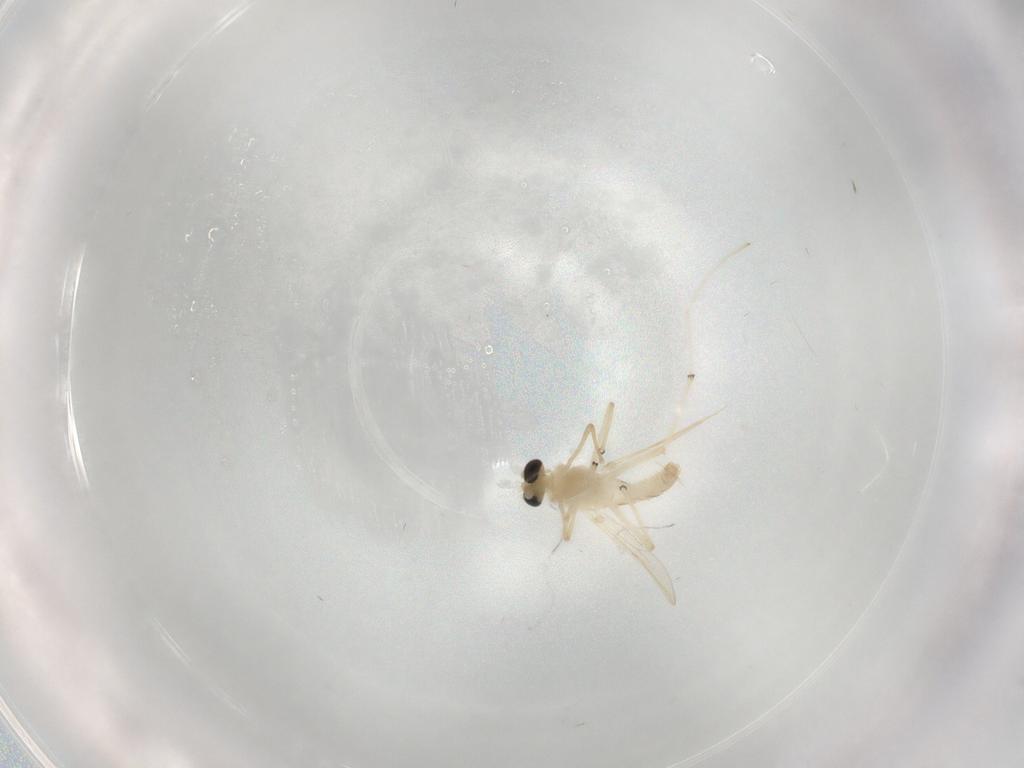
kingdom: Animalia
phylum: Arthropoda
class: Insecta
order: Diptera
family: Chironomidae
